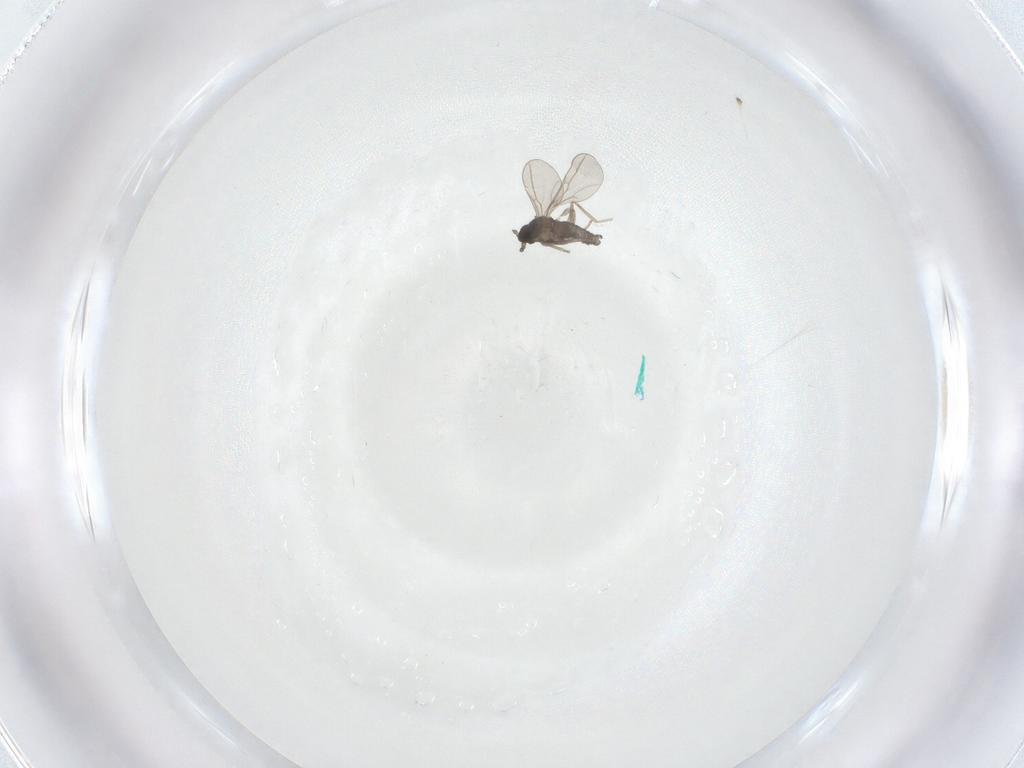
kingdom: Animalia
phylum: Arthropoda
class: Insecta
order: Diptera
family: Cecidomyiidae
